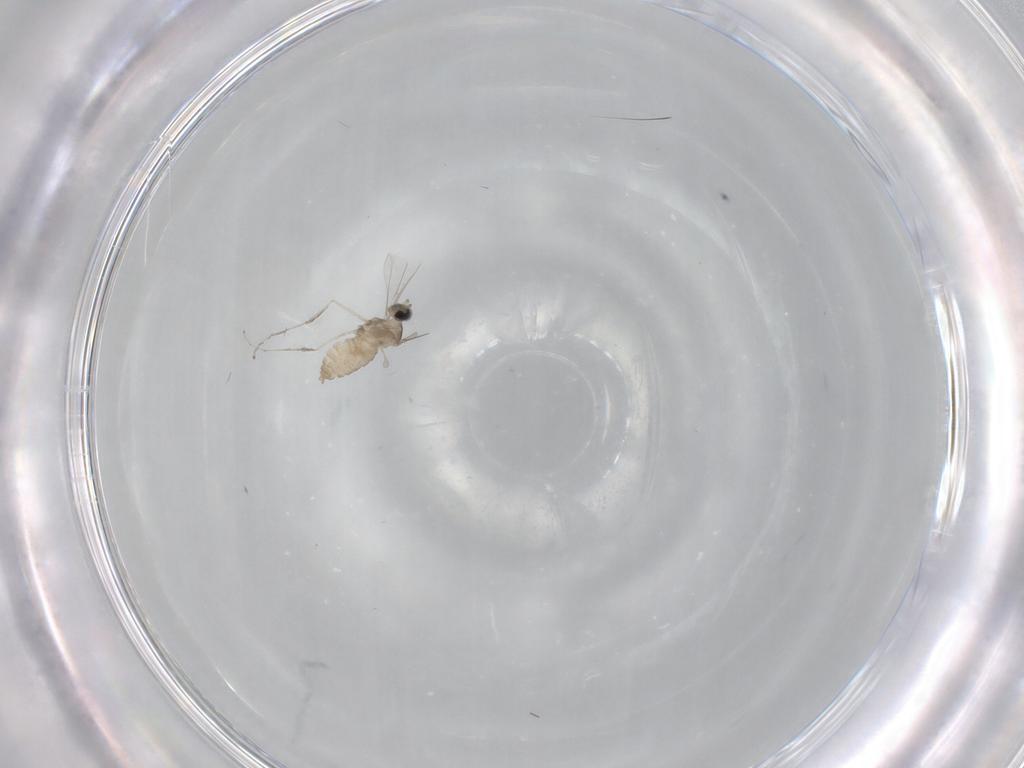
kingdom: Animalia
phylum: Arthropoda
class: Insecta
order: Diptera
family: Cecidomyiidae
